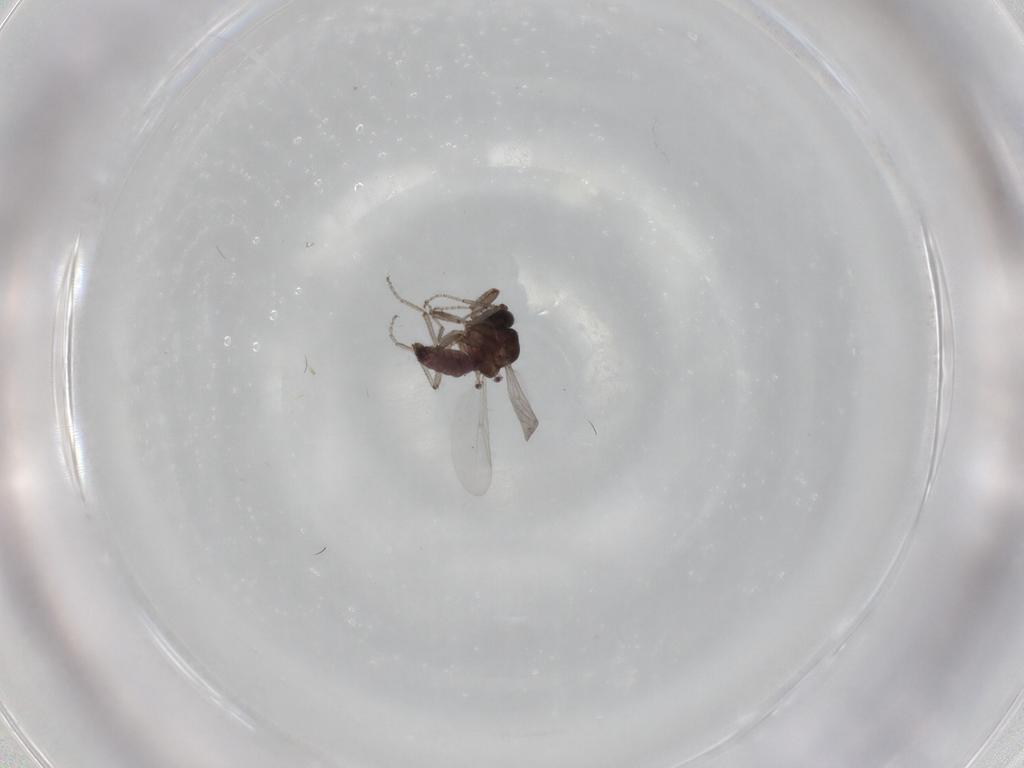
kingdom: Animalia
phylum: Arthropoda
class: Insecta
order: Diptera
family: Ceratopogonidae
